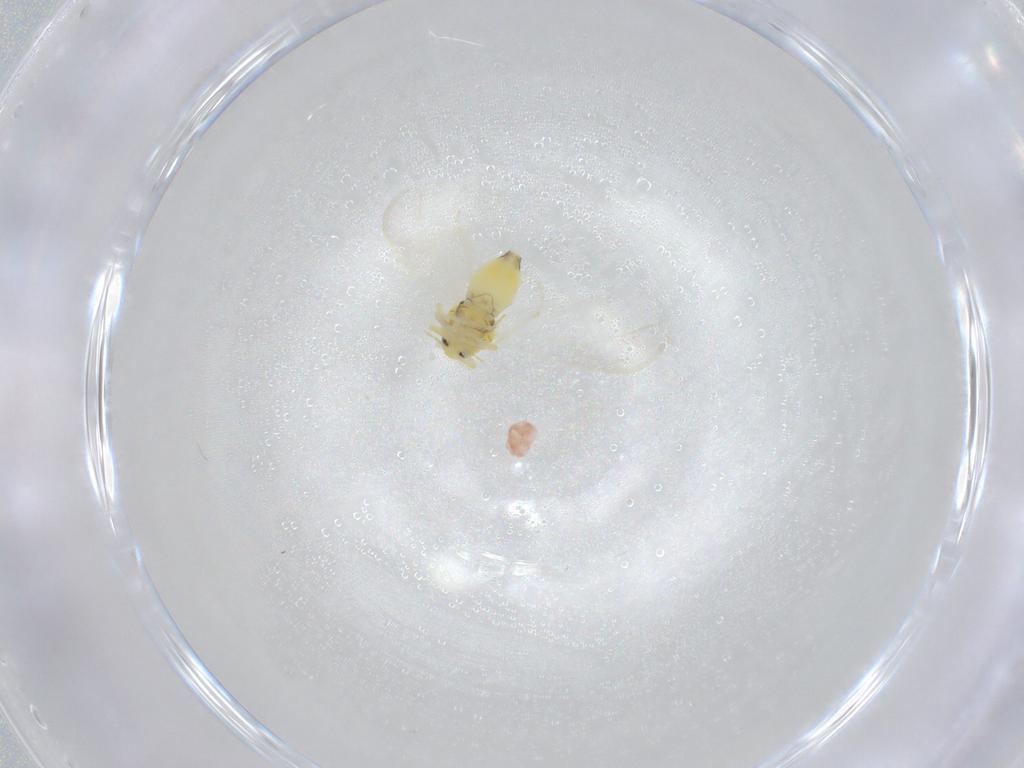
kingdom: Animalia
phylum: Arthropoda
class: Insecta
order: Hemiptera
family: Aleyrodidae
